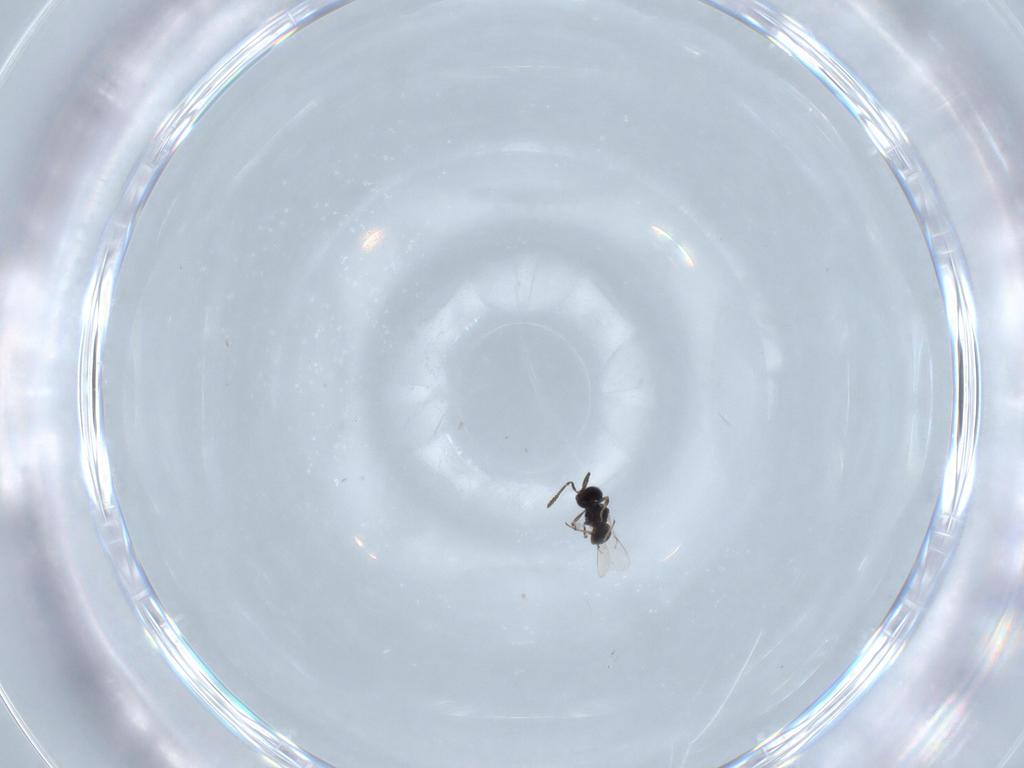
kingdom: Animalia
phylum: Arthropoda
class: Insecta
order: Hymenoptera
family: Scelionidae
